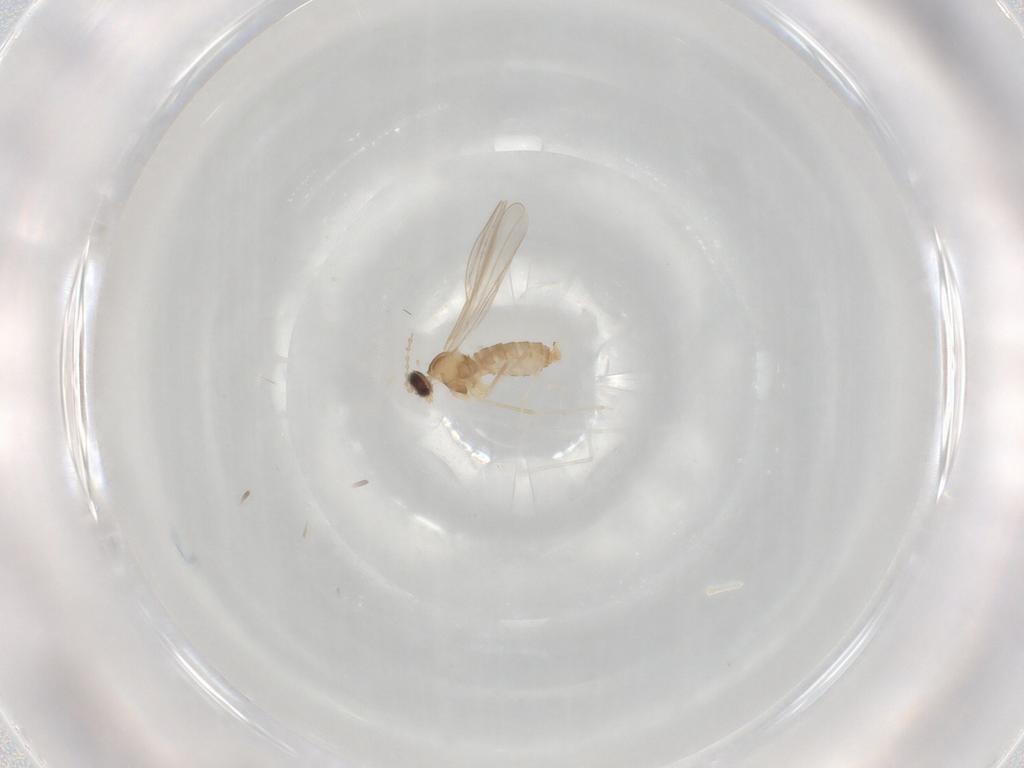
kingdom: Animalia
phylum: Arthropoda
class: Insecta
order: Diptera
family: Cecidomyiidae
